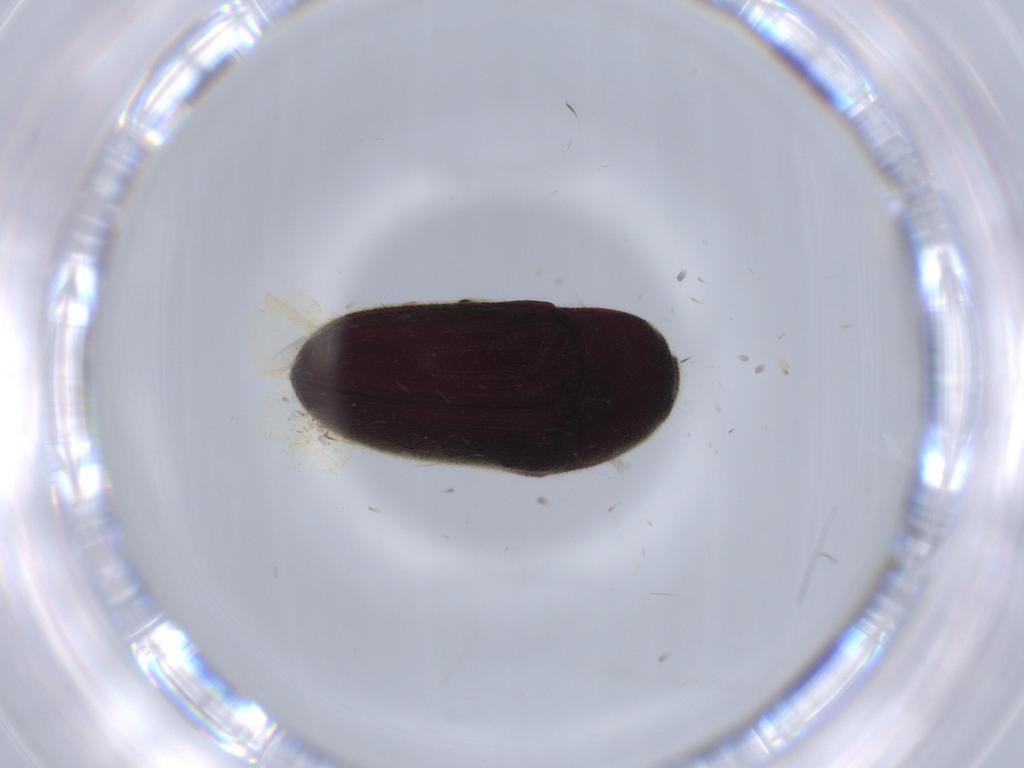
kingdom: Animalia
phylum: Arthropoda
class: Insecta
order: Coleoptera
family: Throscidae
